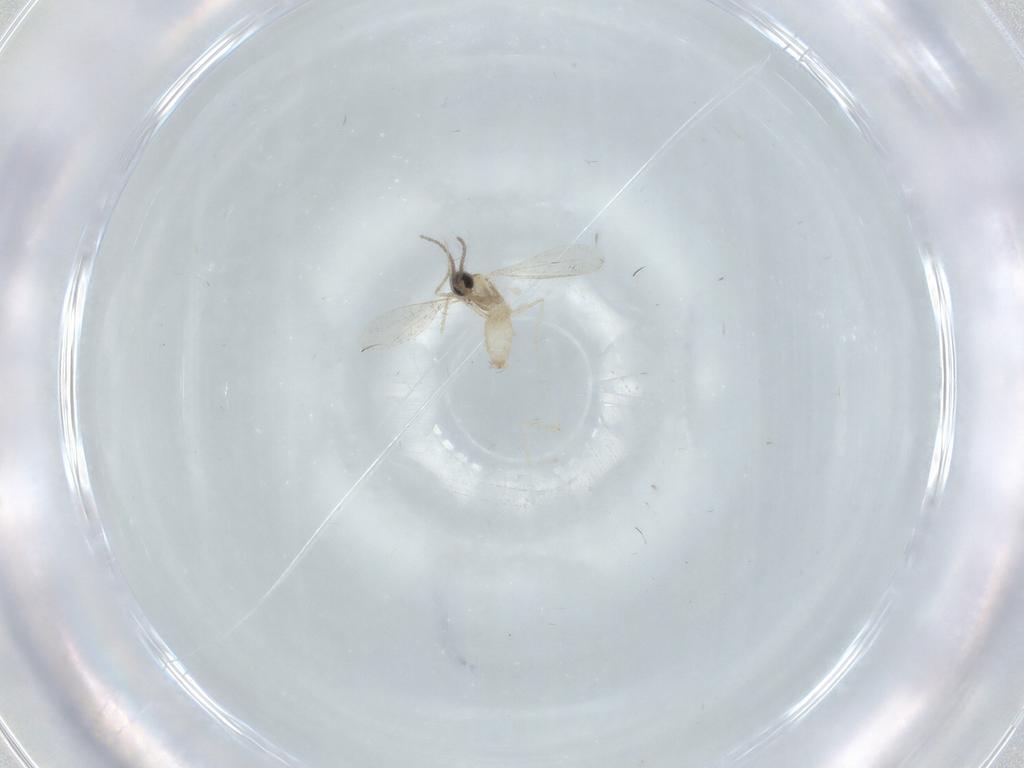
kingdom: Animalia
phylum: Arthropoda
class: Insecta
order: Diptera
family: Cecidomyiidae
